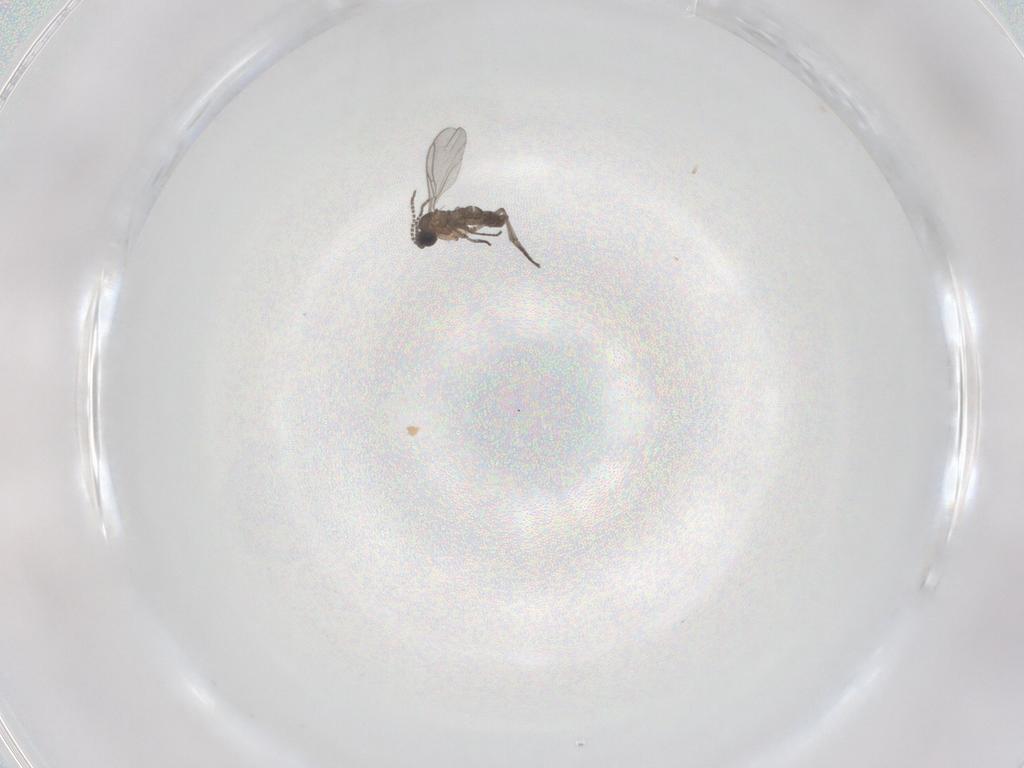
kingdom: Animalia
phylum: Arthropoda
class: Insecta
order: Diptera
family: Sciaridae
